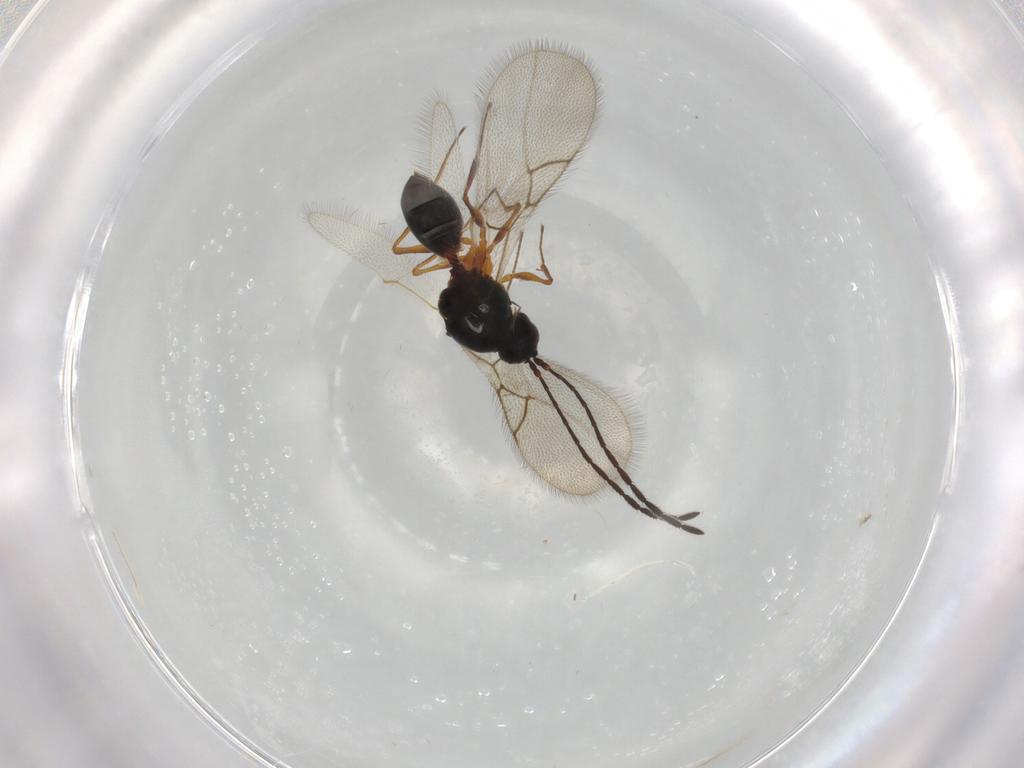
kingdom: Animalia
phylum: Arthropoda
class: Insecta
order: Hymenoptera
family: Figitidae
